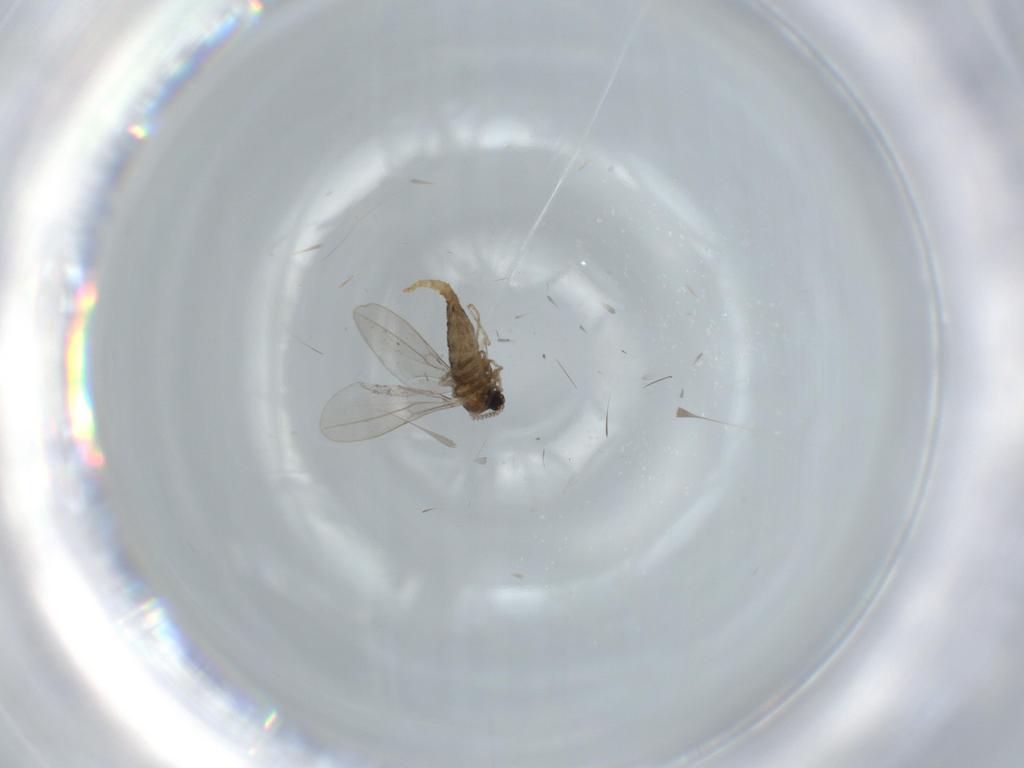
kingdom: Animalia
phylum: Arthropoda
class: Insecta
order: Diptera
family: Cecidomyiidae
